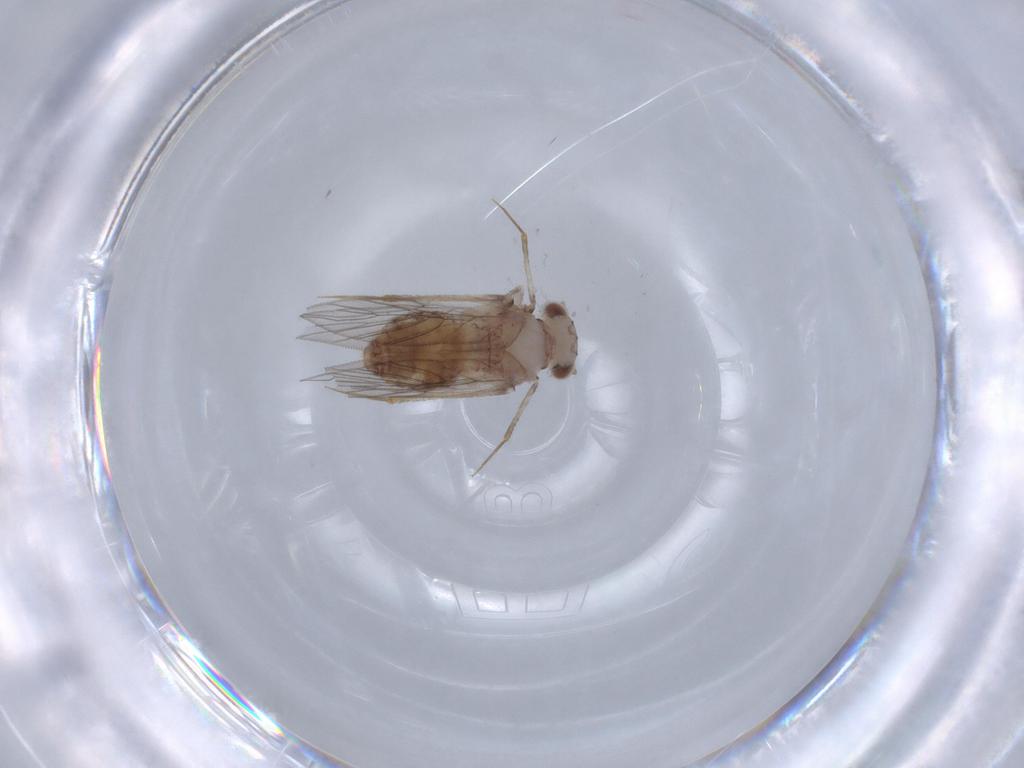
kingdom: Animalia
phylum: Arthropoda
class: Insecta
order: Psocodea
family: Lepidopsocidae
